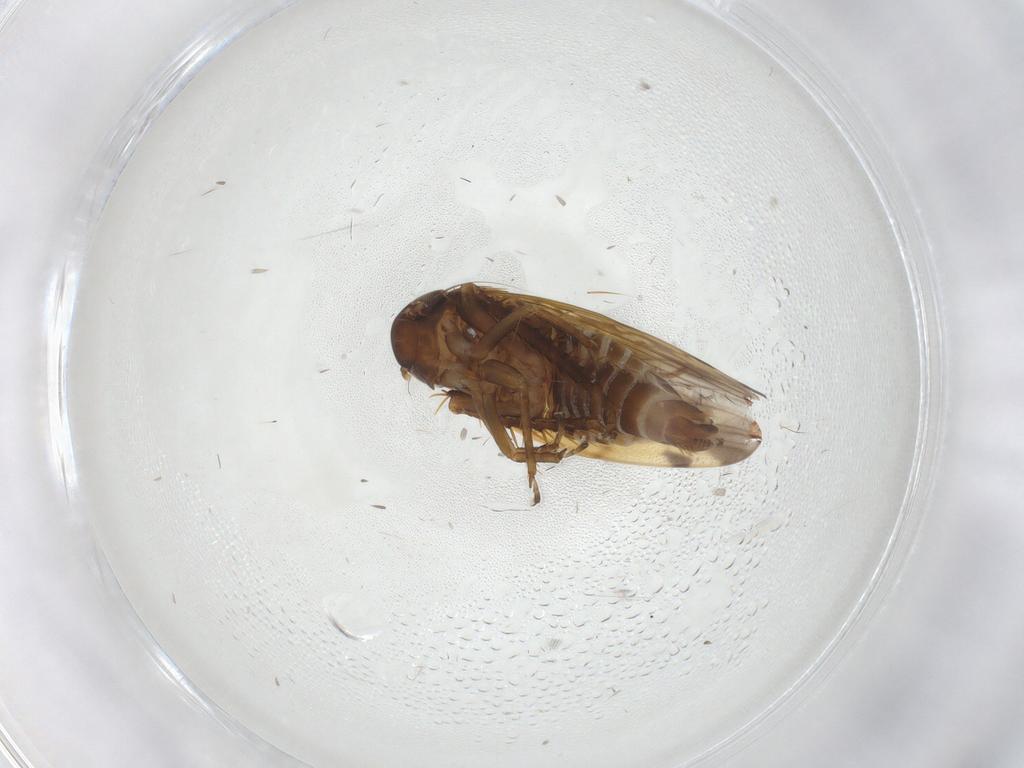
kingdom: Animalia
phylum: Arthropoda
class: Insecta
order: Hemiptera
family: Cicadellidae
